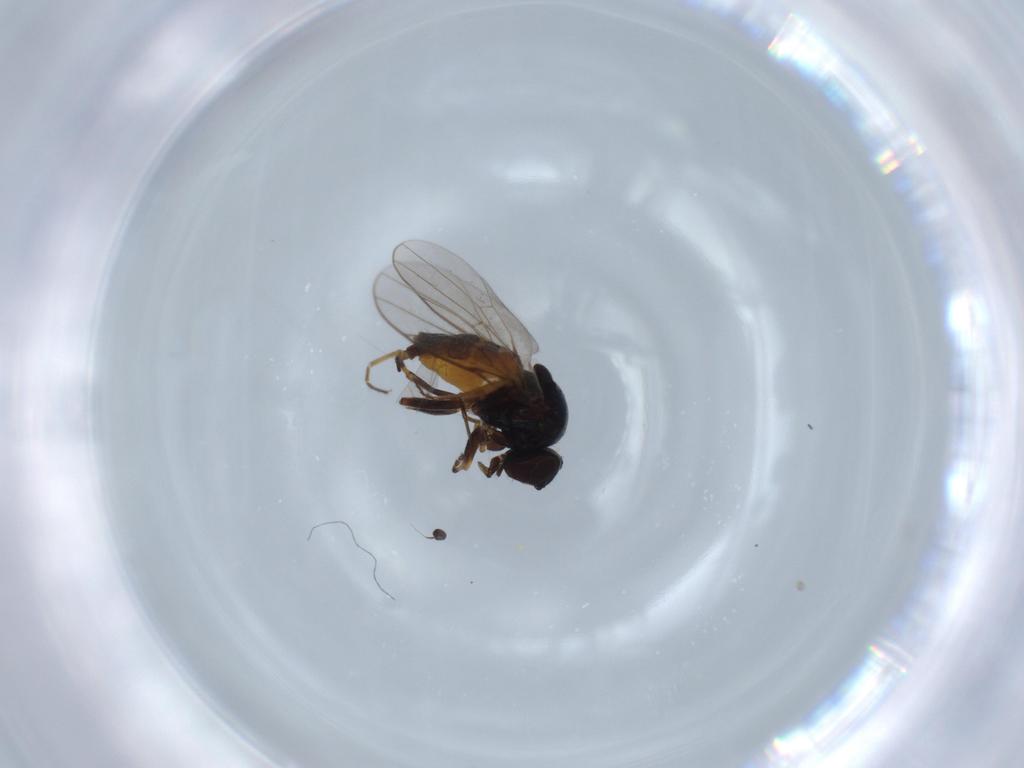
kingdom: Animalia
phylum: Arthropoda
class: Insecta
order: Diptera
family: Chloropidae
